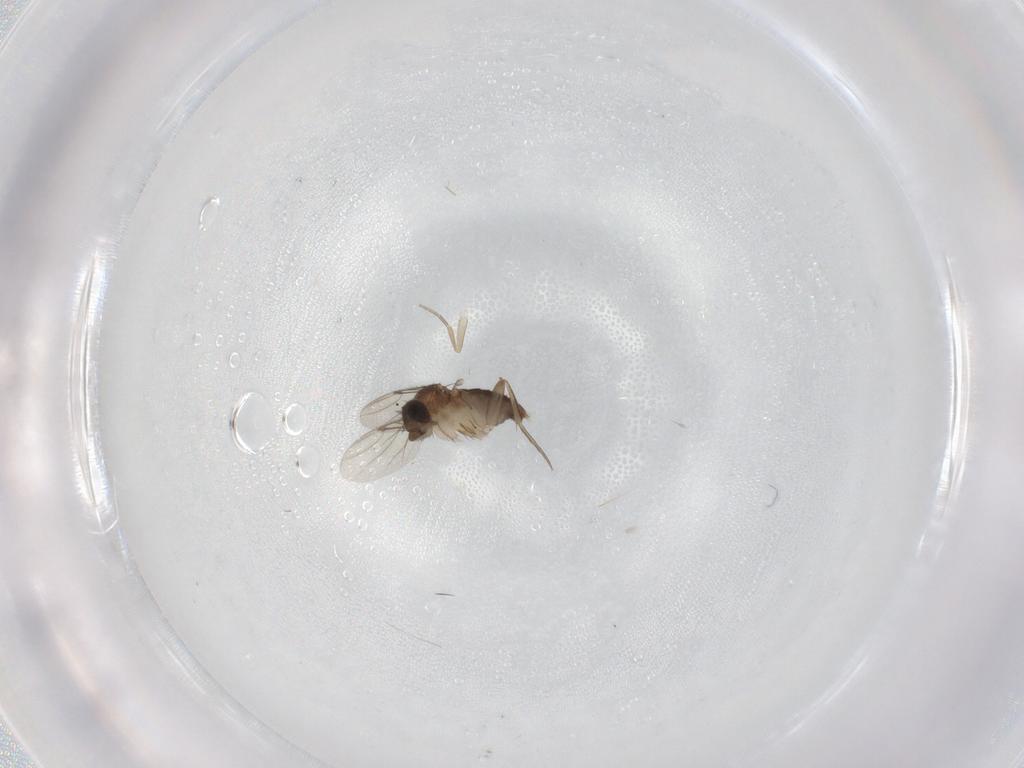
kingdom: Animalia
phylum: Arthropoda
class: Insecta
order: Diptera
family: Phoridae
